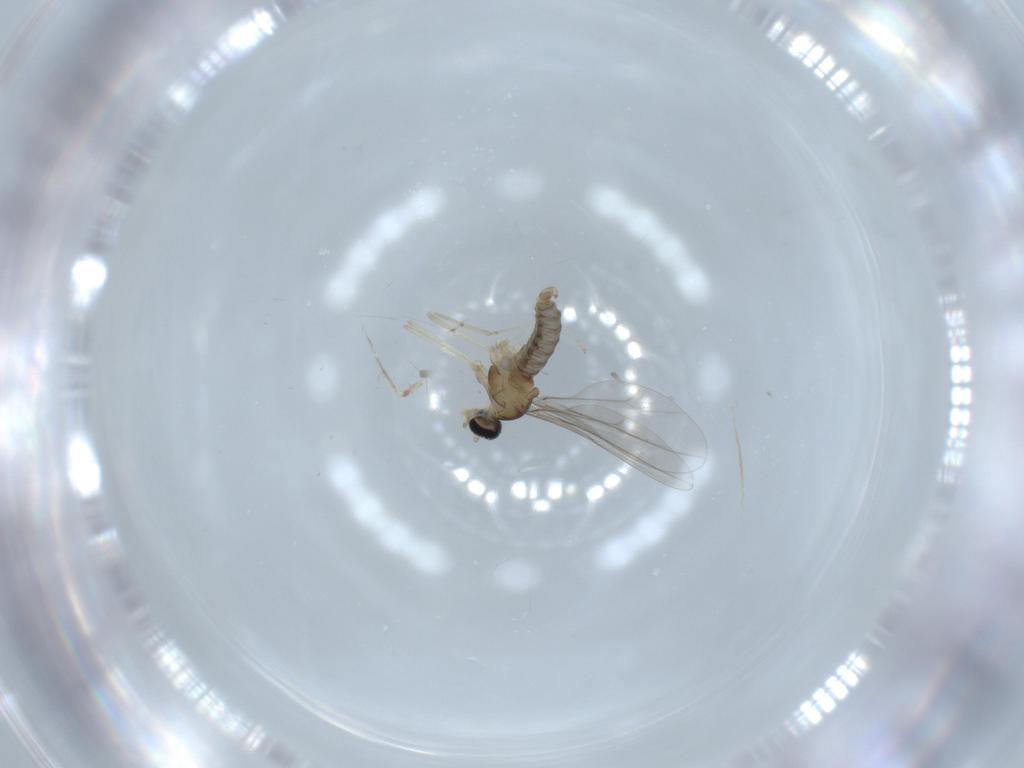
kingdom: Animalia
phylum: Arthropoda
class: Insecta
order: Diptera
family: Cecidomyiidae
